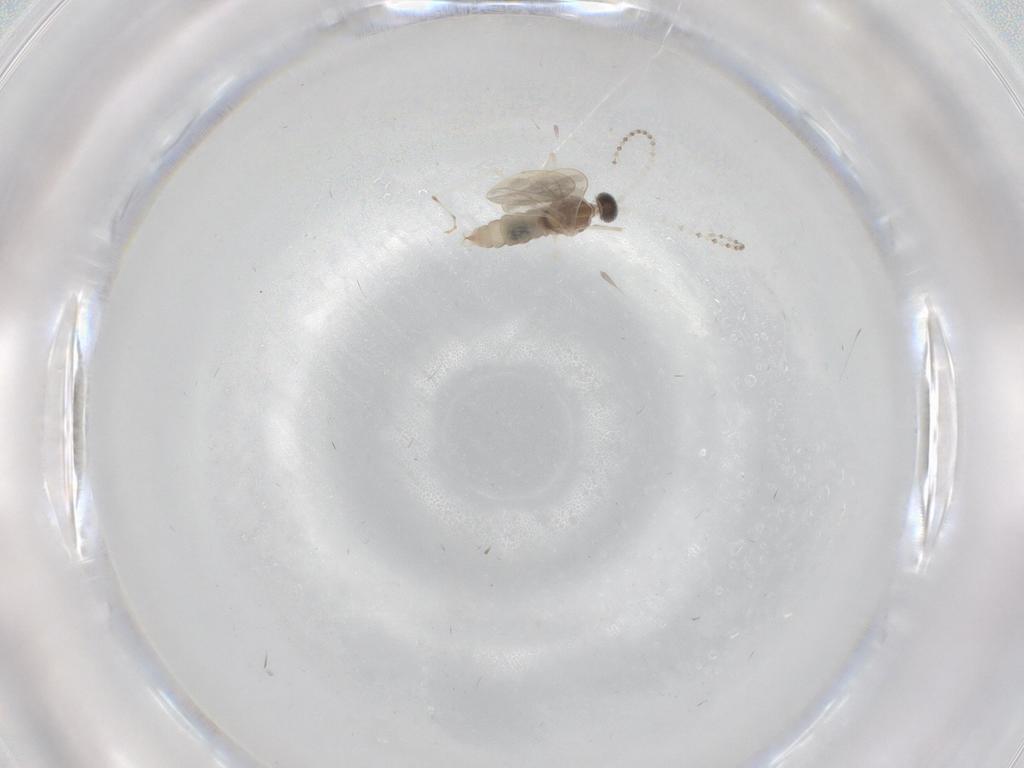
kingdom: Animalia
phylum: Arthropoda
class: Insecta
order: Diptera
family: Cecidomyiidae
